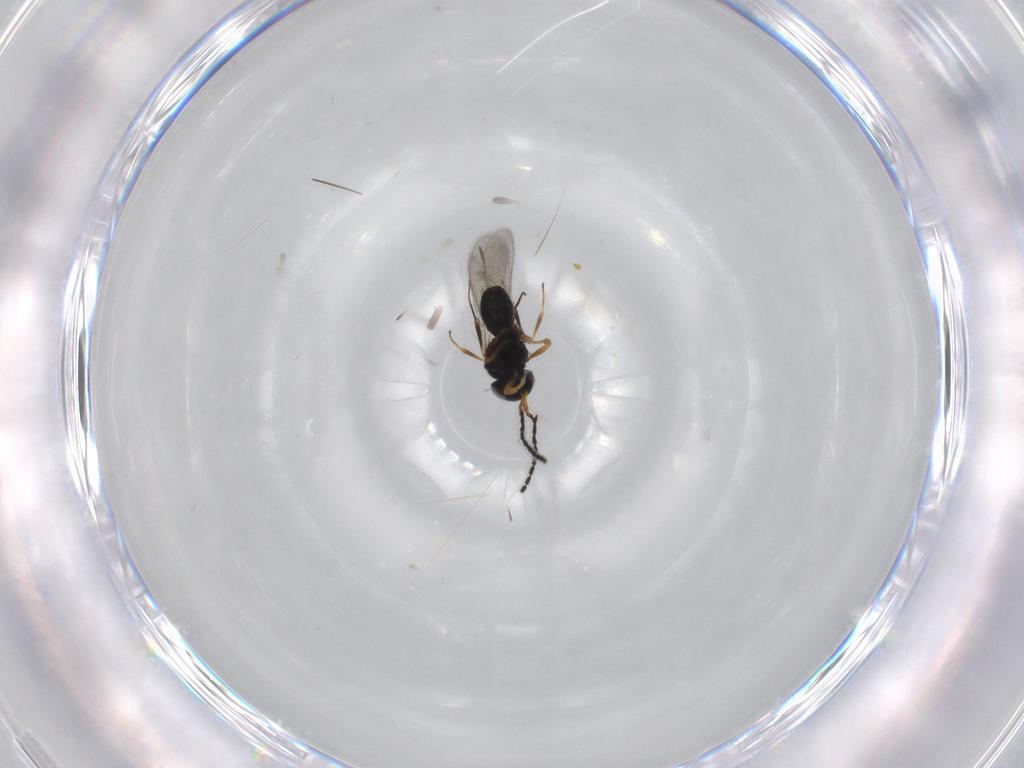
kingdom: Animalia
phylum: Arthropoda
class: Insecta
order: Hymenoptera
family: Scelionidae
